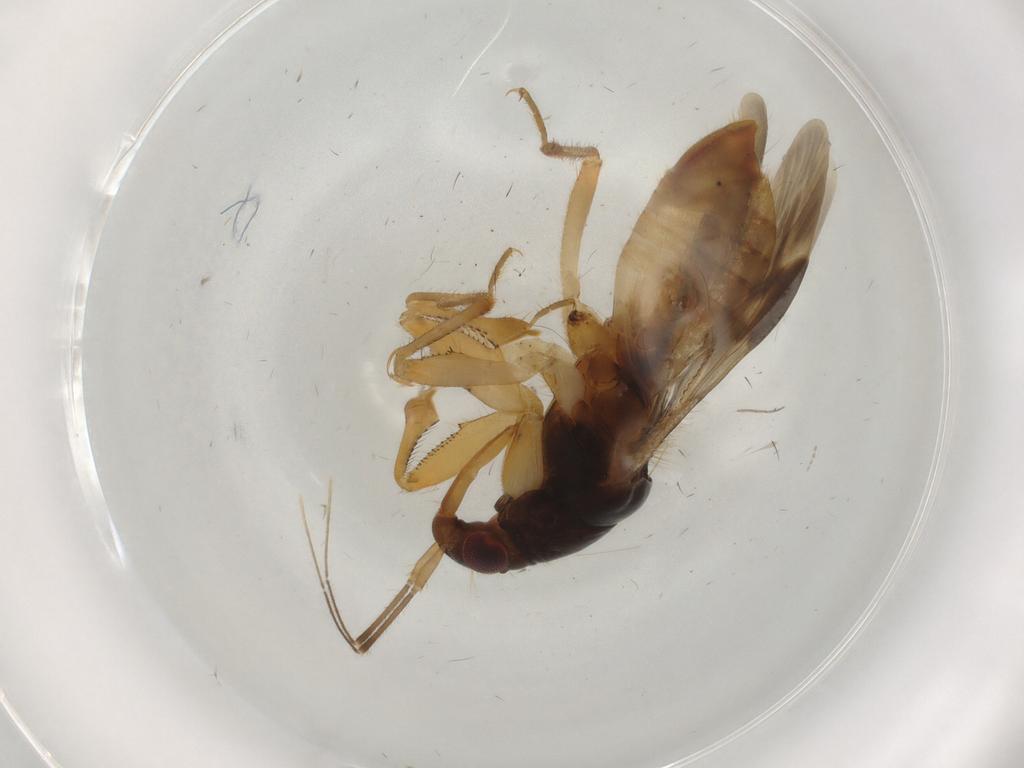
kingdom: Animalia
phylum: Arthropoda
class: Insecta
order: Hemiptera
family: Nabidae
